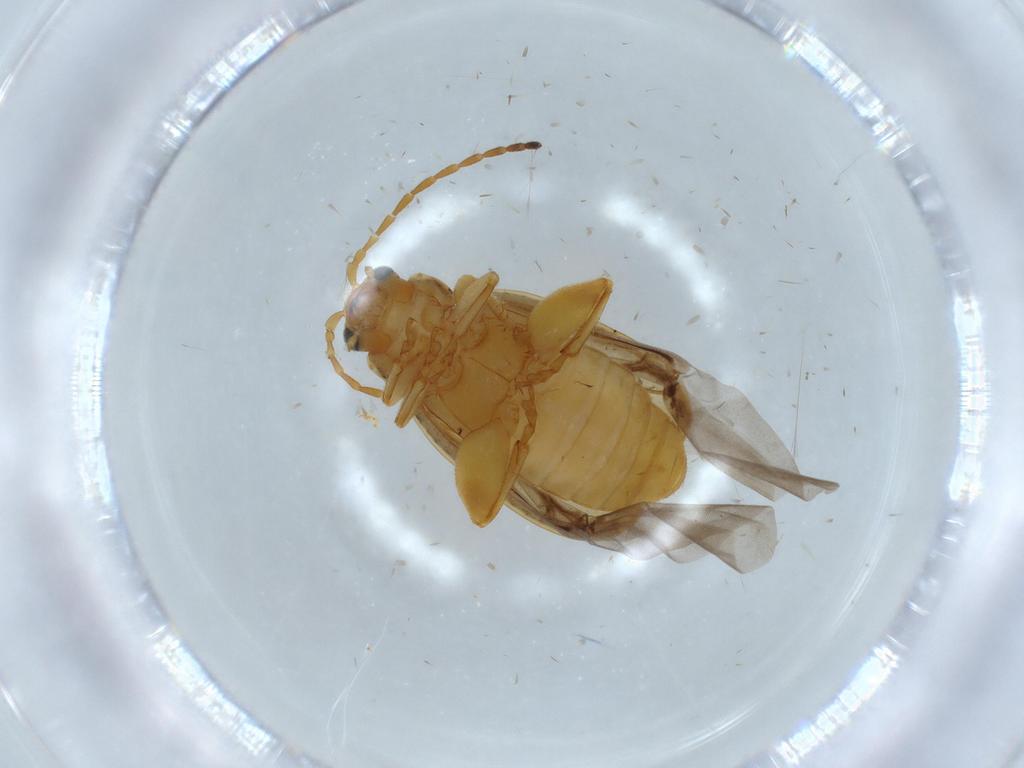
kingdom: Animalia
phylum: Arthropoda
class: Insecta
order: Coleoptera
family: Chrysomelidae
